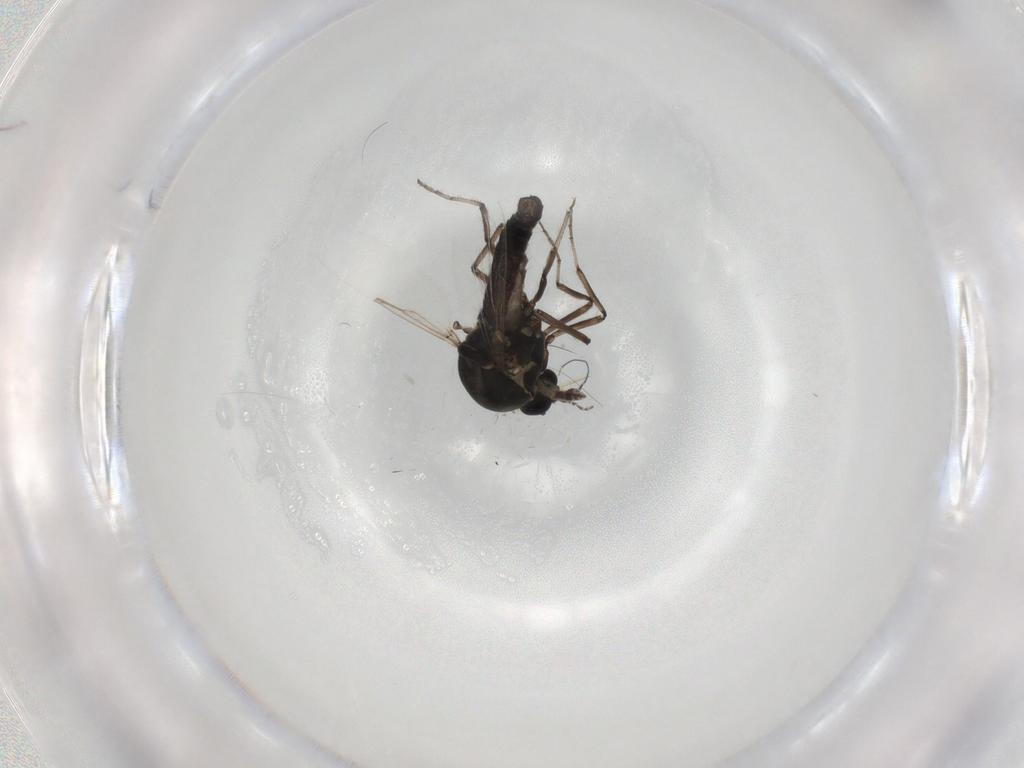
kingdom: Animalia
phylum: Arthropoda
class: Insecta
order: Diptera
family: Ceratopogonidae
